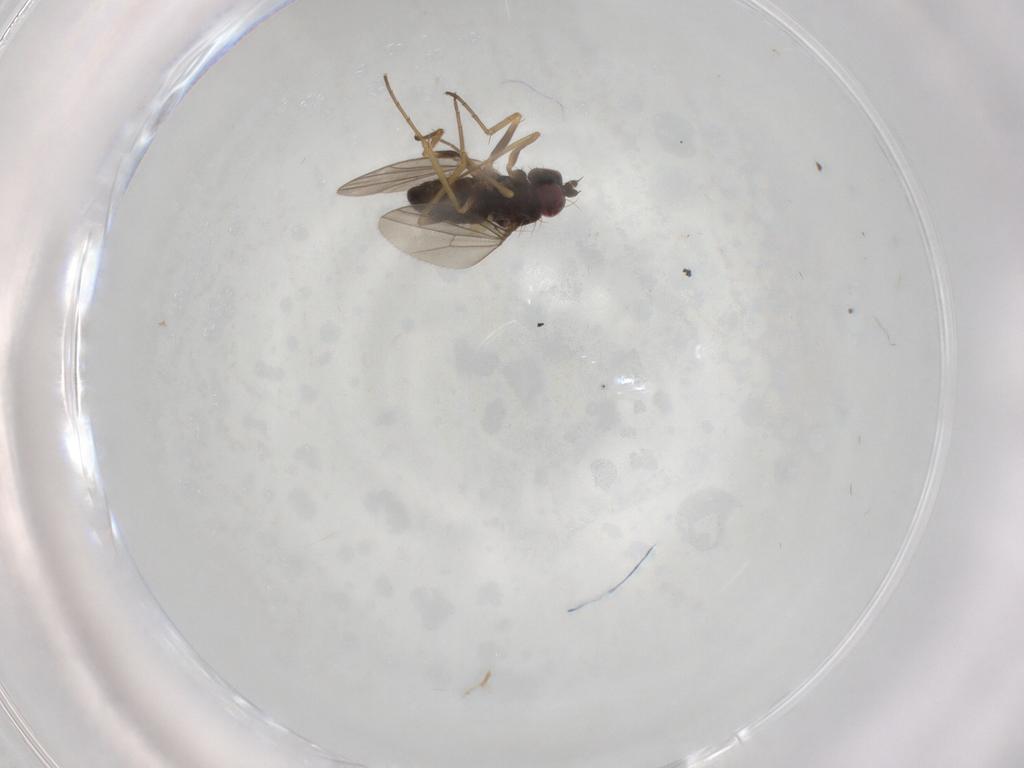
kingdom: Animalia
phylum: Arthropoda
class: Insecta
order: Diptera
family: Dolichopodidae
